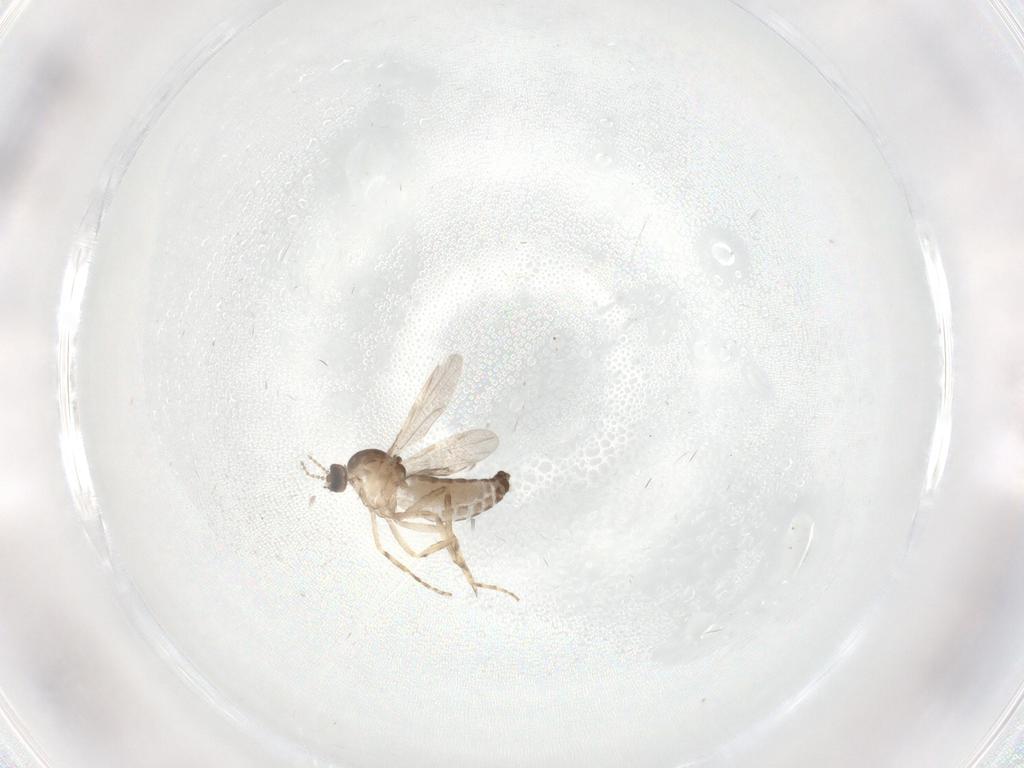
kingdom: Animalia
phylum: Arthropoda
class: Insecta
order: Diptera
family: Ceratopogonidae
